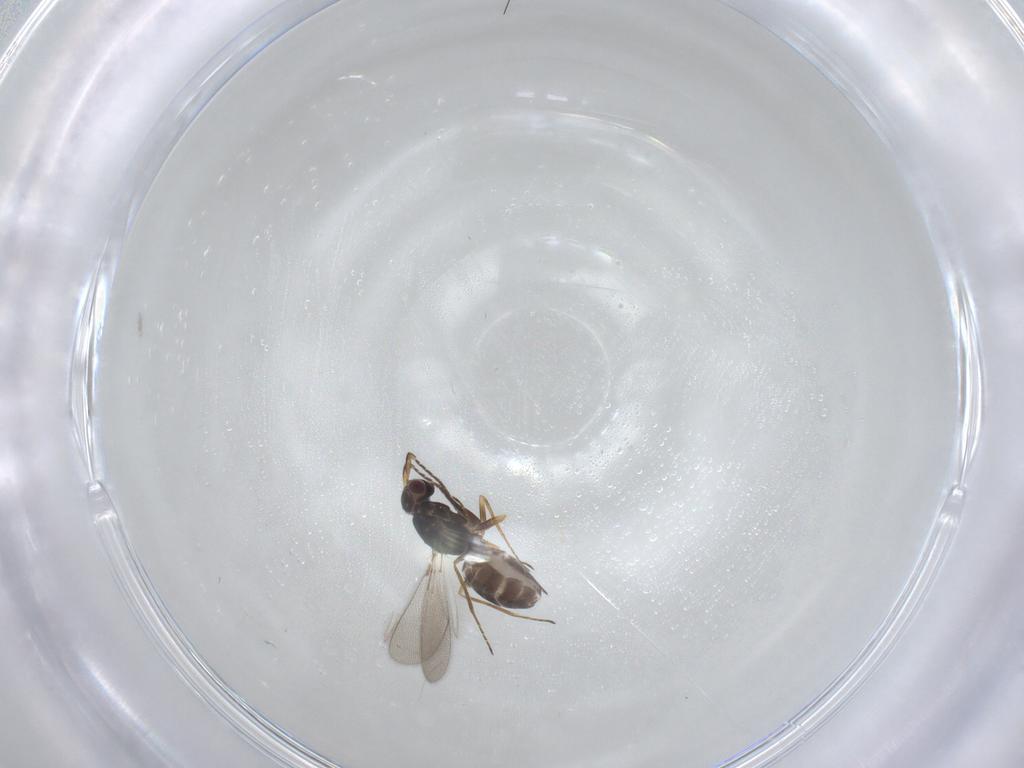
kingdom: Animalia
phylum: Arthropoda
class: Insecta
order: Hymenoptera
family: Mymaridae
